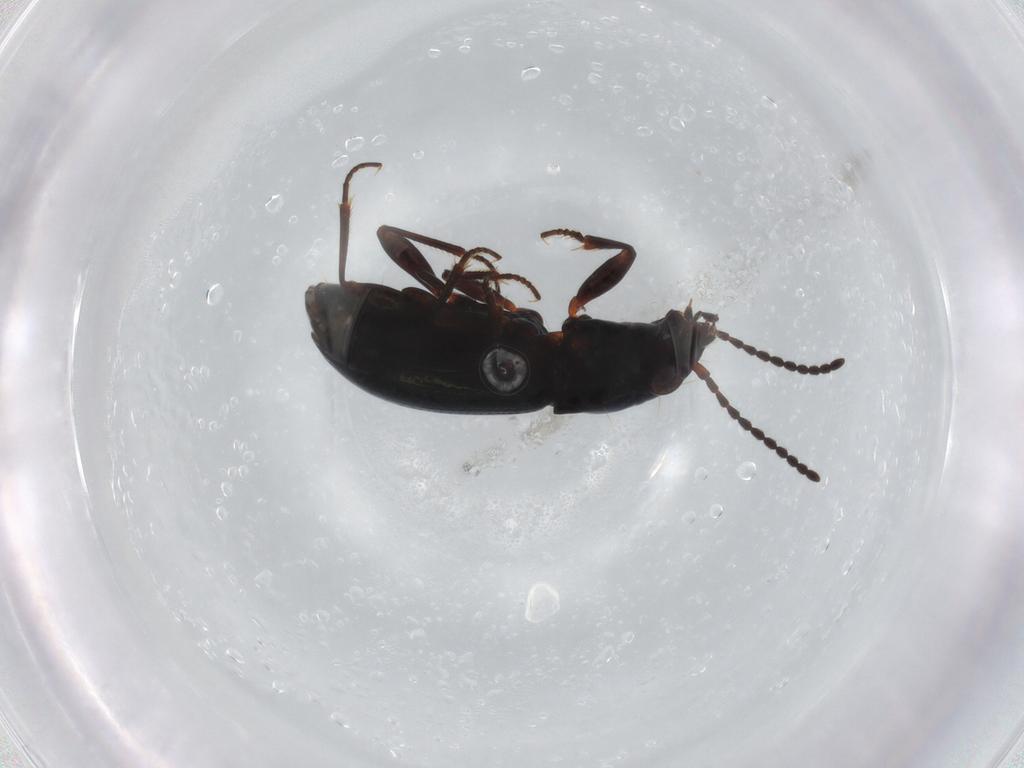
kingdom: Animalia
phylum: Arthropoda
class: Insecta
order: Coleoptera
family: Carabidae
